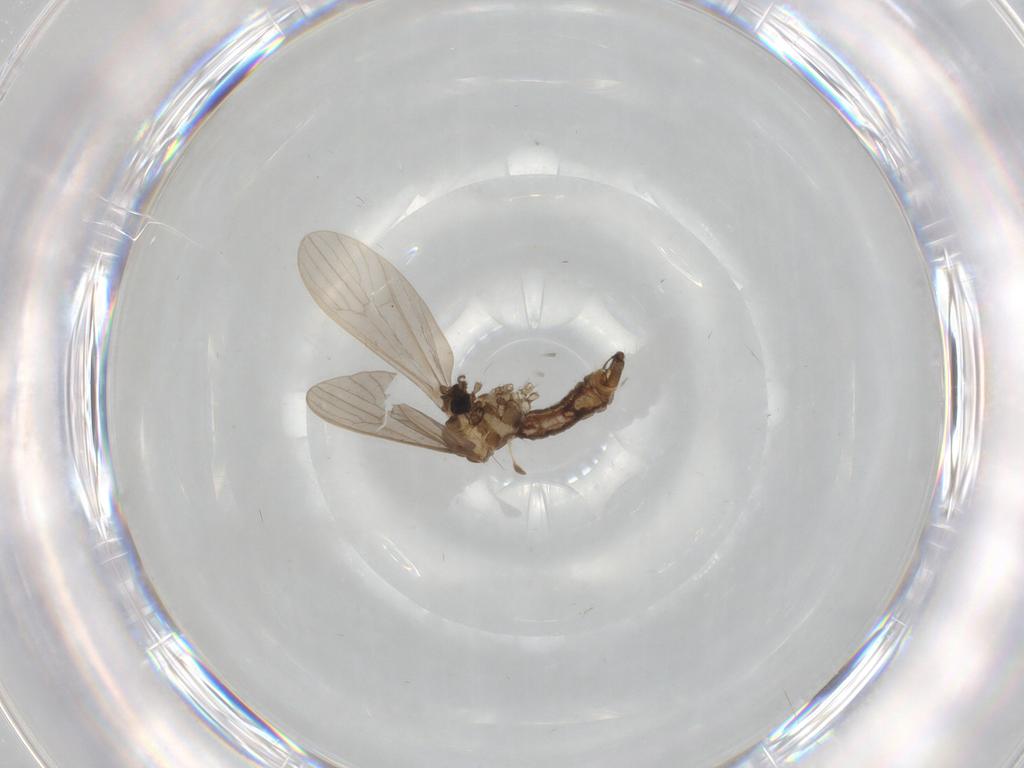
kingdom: Animalia
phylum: Arthropoda
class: Insecta
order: Diptera
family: Limoniidae
